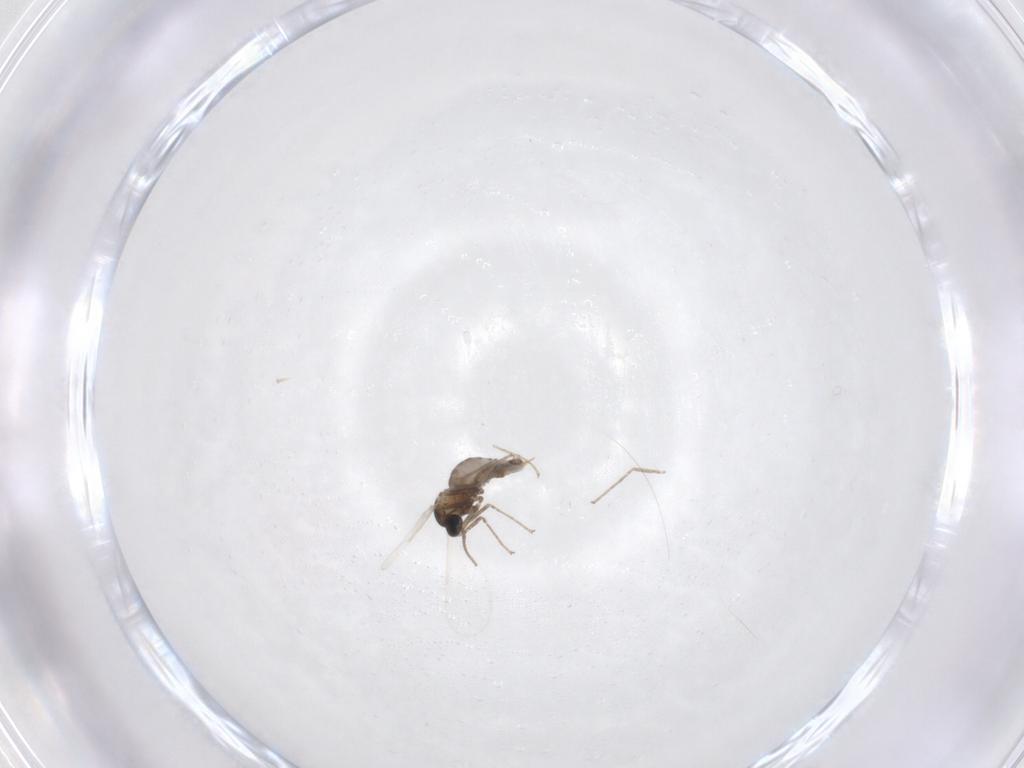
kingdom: Animalia
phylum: Arthropoda
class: Insecta
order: Diptera
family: Cecidomyiidae
